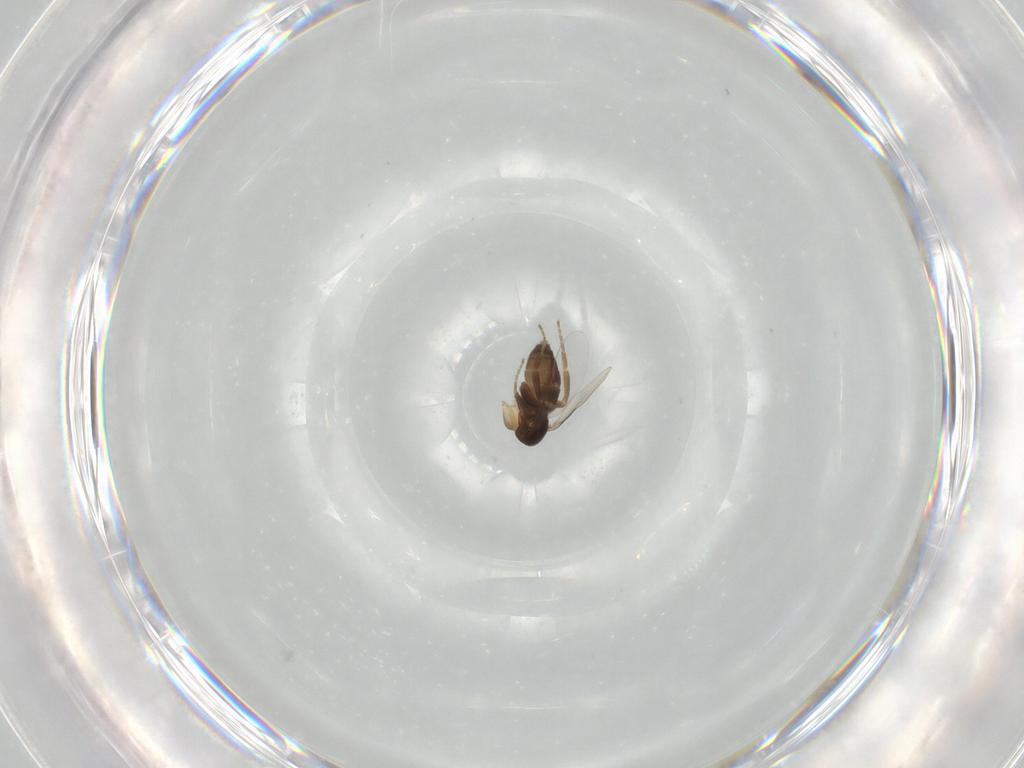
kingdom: Animalia
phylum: Arthropoda
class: Insecta
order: Diptera
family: Phoridae
